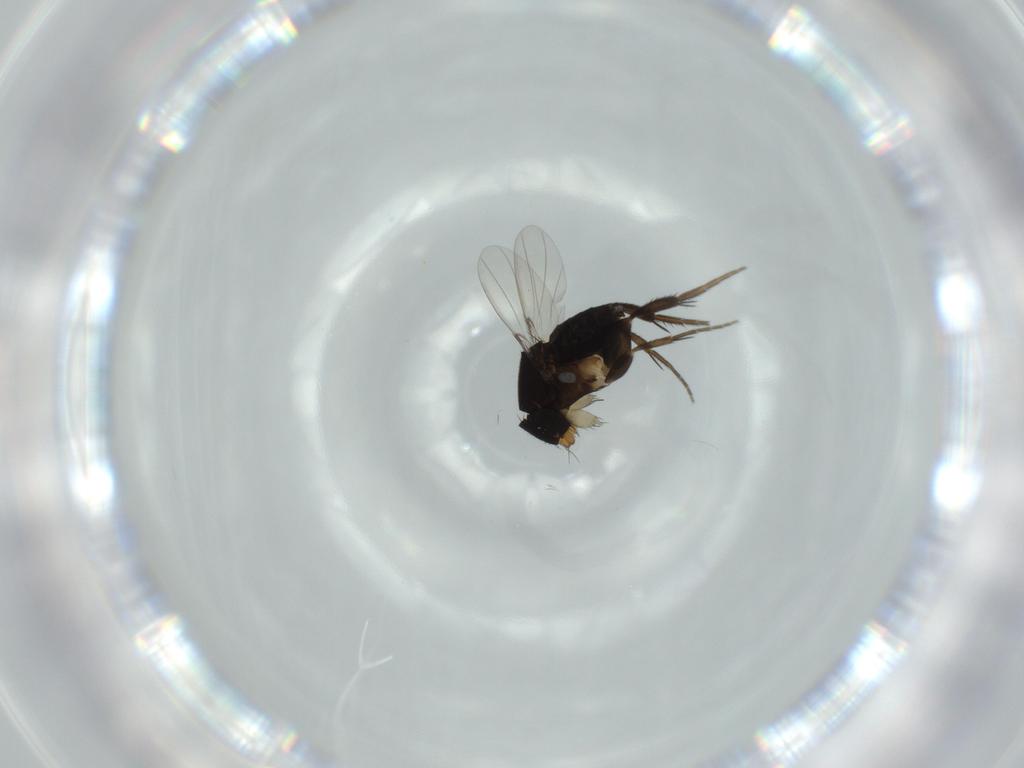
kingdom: Animalia
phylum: Arthropoda
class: Insecta
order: Diptera
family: Phoridae
